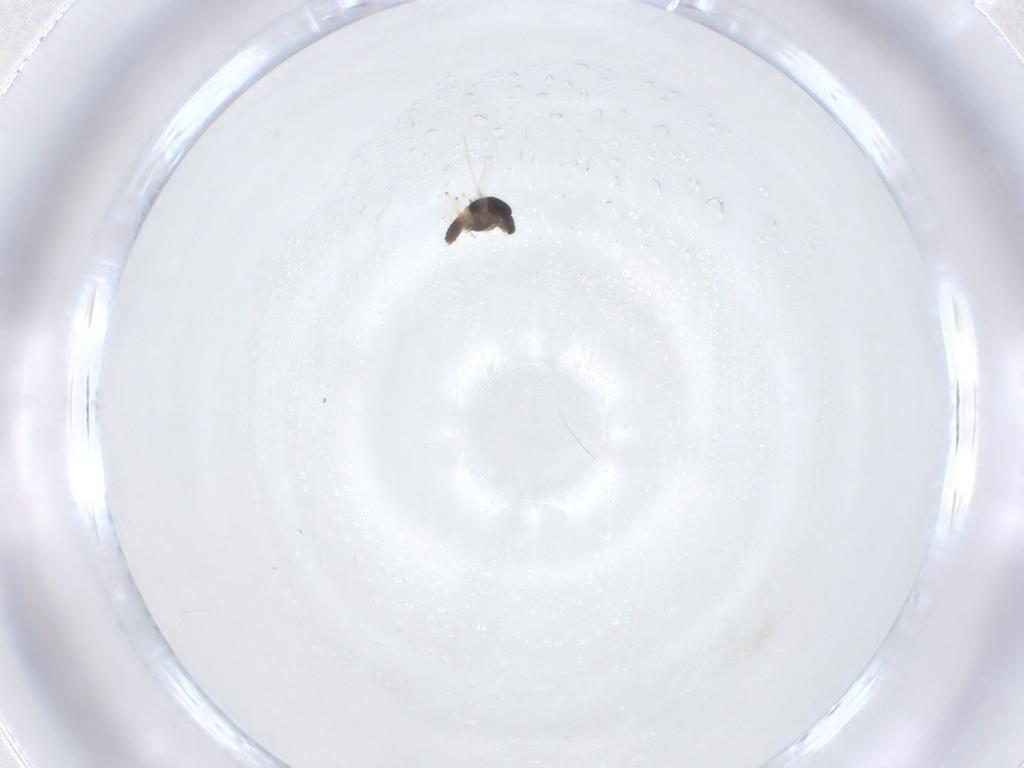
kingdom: Animalia
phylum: Arthropoda
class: Insecta
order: Diptera
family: Chironomidae
